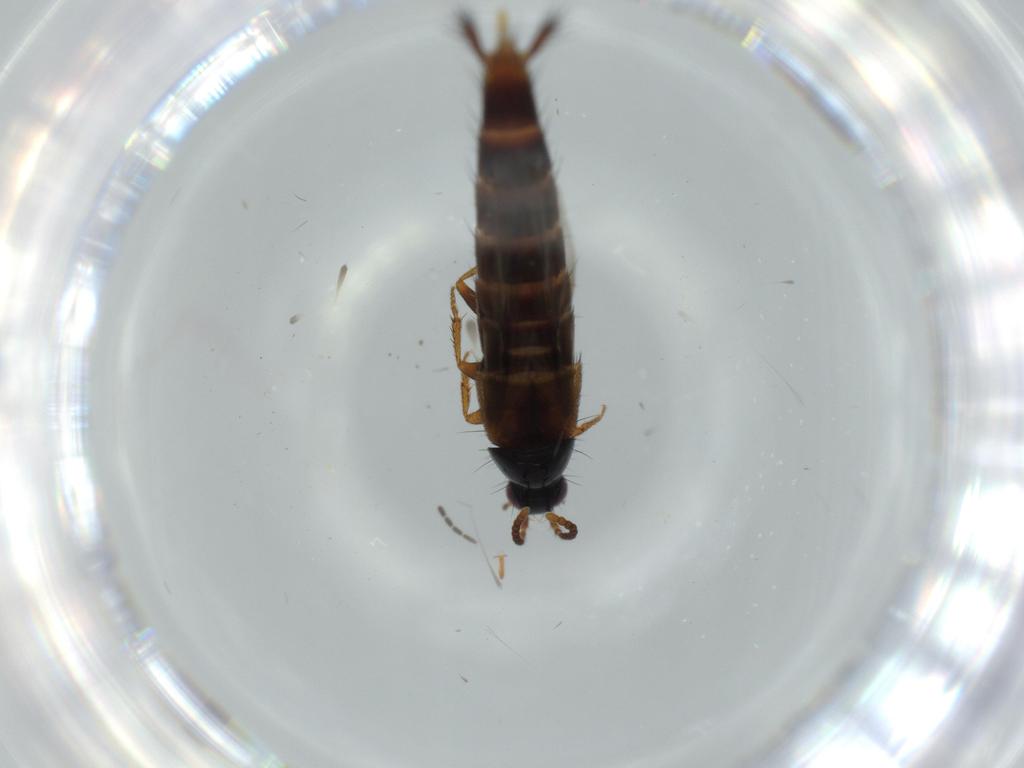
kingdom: Animalia
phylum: Arthropoda
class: Insecta
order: Coleoptera
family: Staphylinidae
